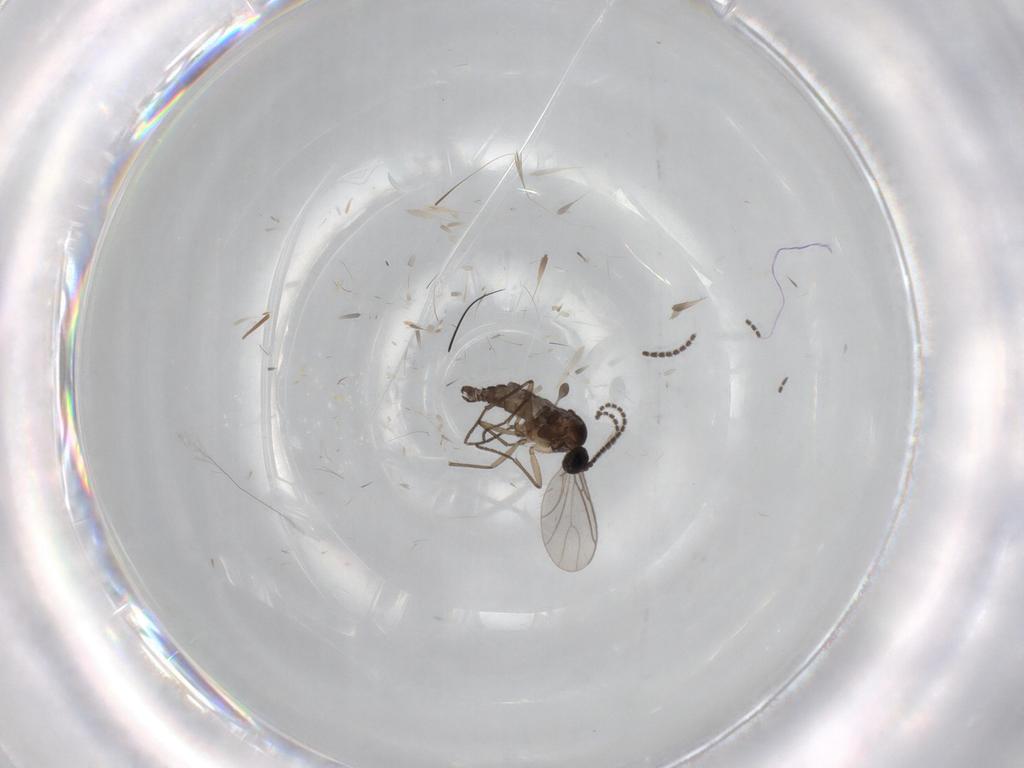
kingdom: Animalia
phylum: Arthropoda
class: Insecta
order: Diptera
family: Sciaridae
